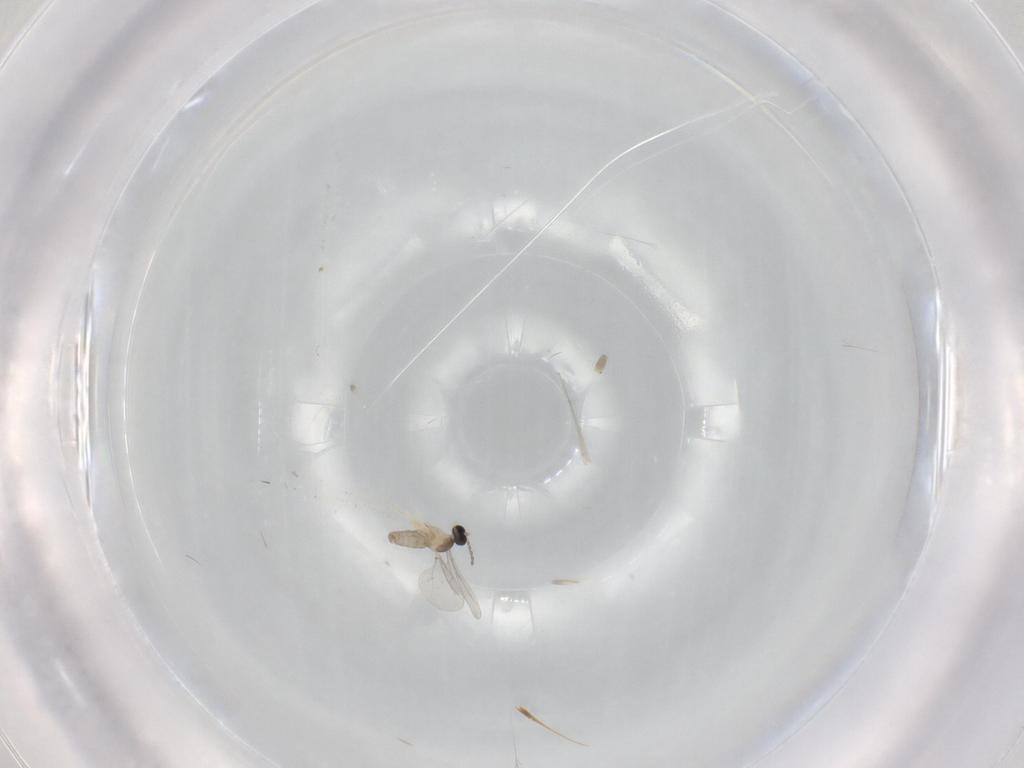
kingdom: Animalia
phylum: Arthropoda
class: Insecta
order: Diptera
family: Cecidomyiidae
